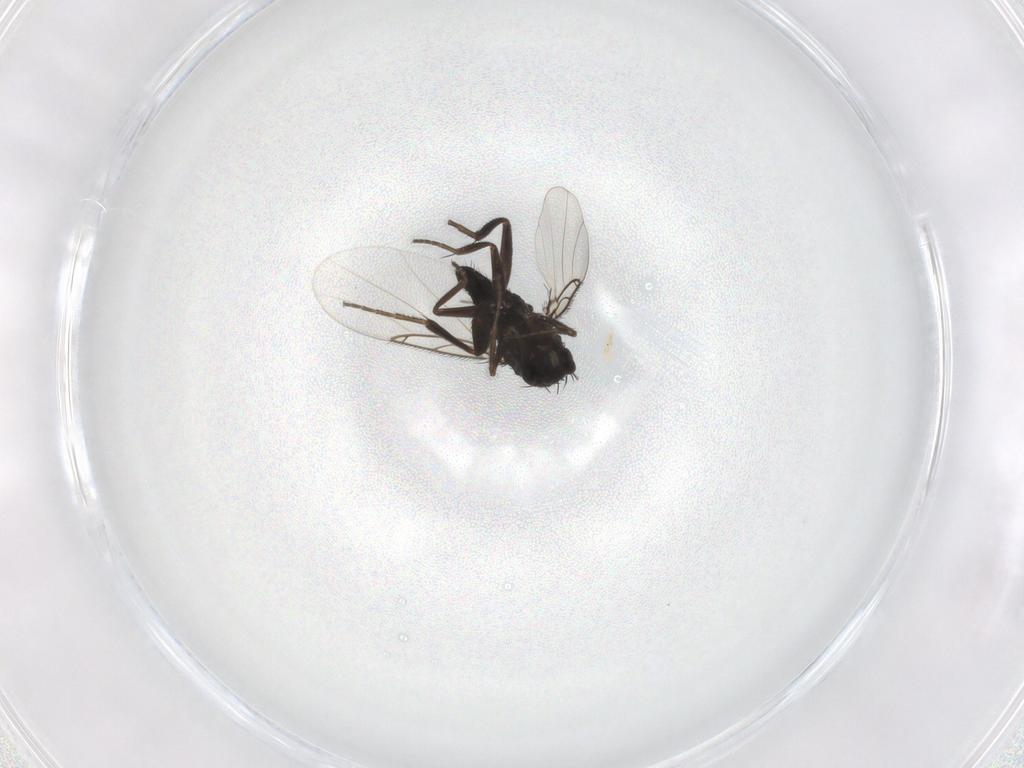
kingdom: Animalia
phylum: Arthropoda
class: Insecta
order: Diptera
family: Phoridae
